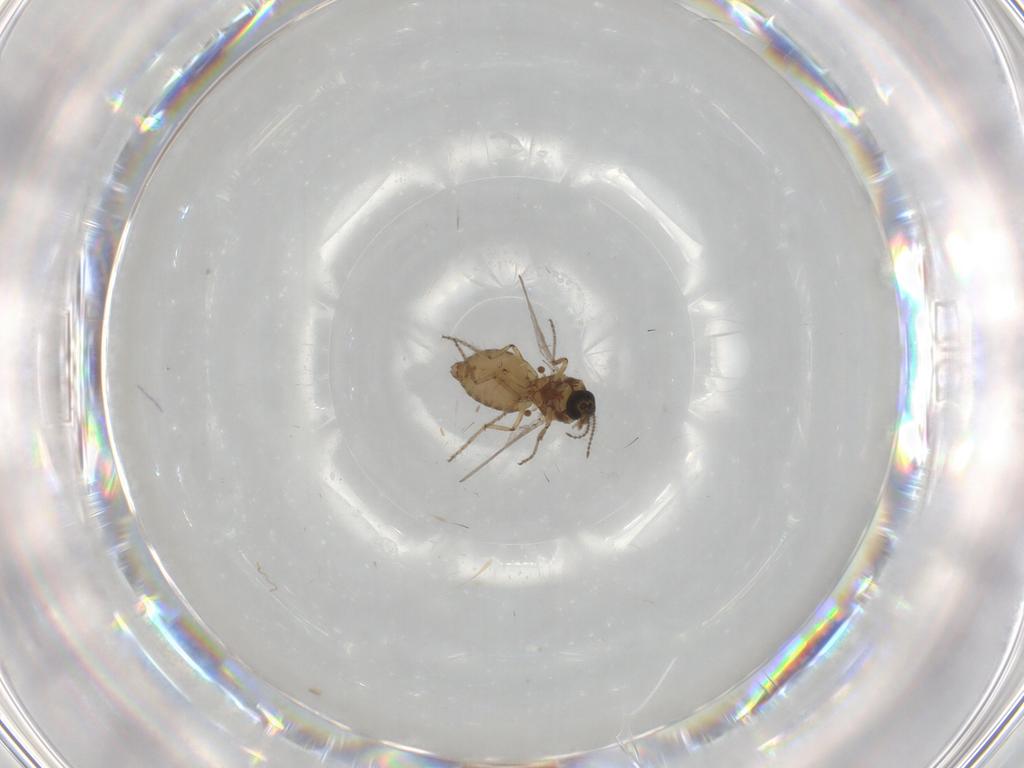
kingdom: Animalia
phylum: Arthropoda
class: Insecta
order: Diptera
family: Ceratopogonidae
